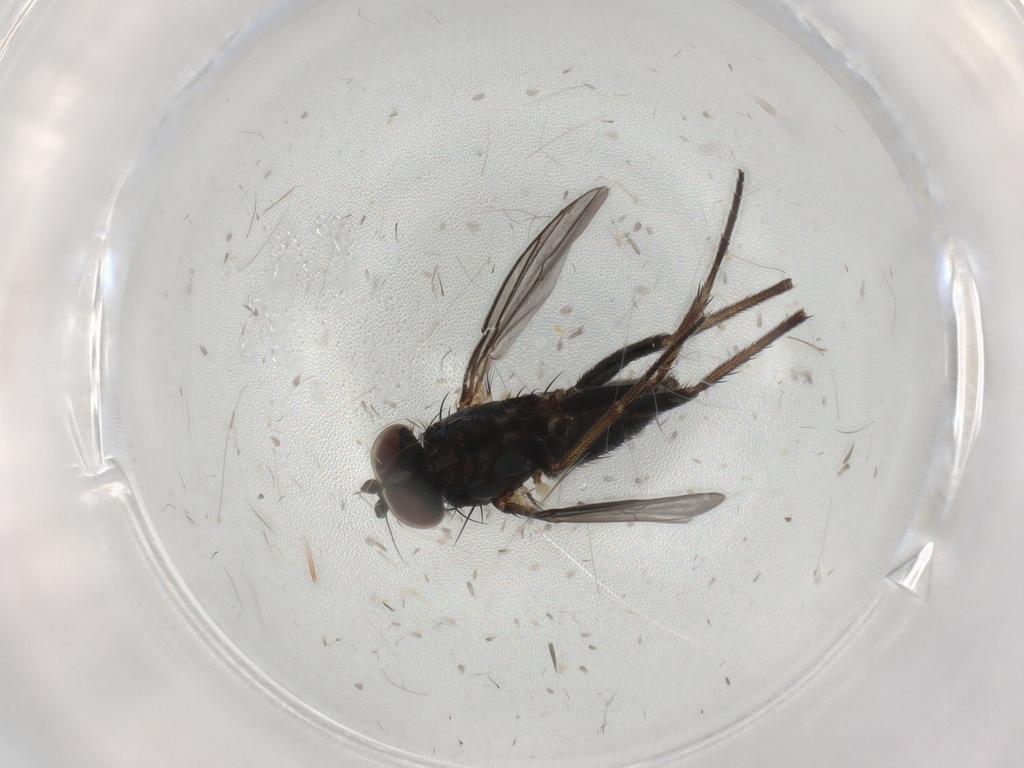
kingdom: Animalia
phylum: Arthropoda
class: Insecta
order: Diptera
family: Dolichopodidae
